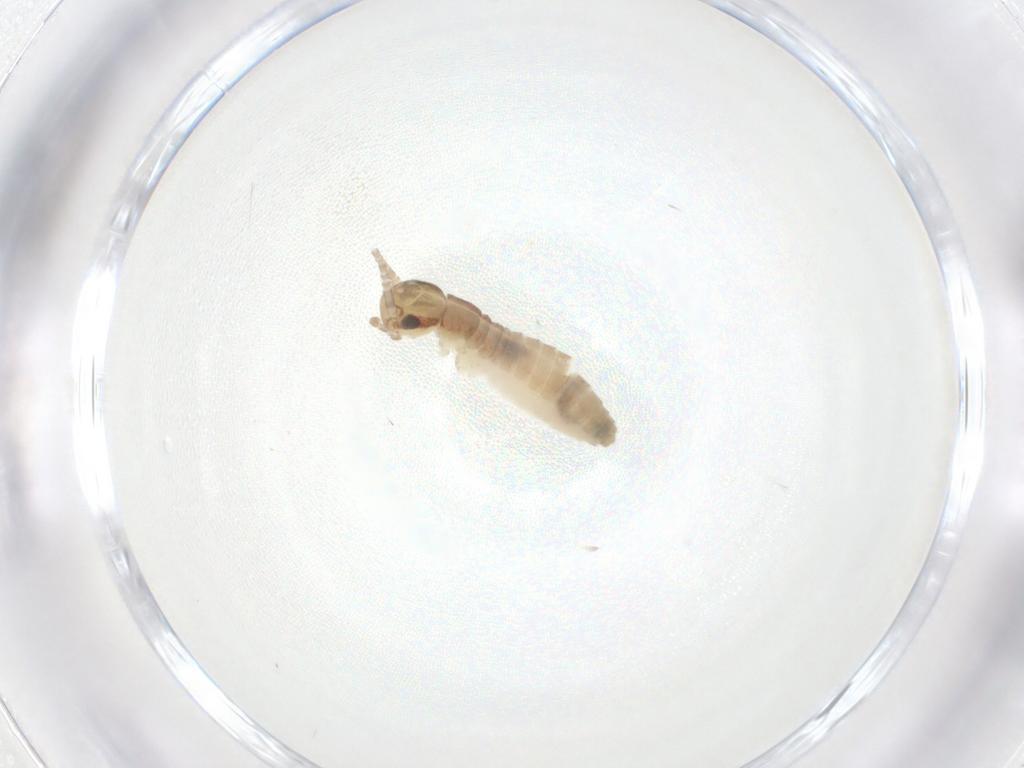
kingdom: Animalia
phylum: Arthropoda
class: Insecta
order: Orthoptera
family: Gryllidae
